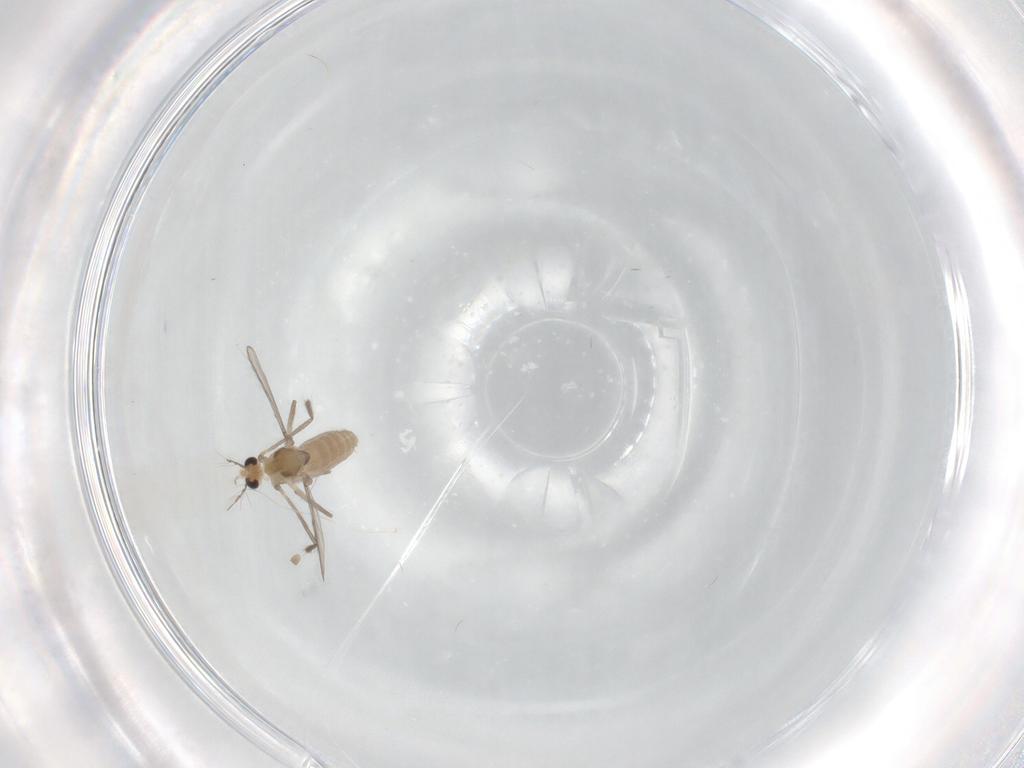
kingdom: Animalia
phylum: Arthropoda
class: Insecta
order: Diptera
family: Chironomidae
